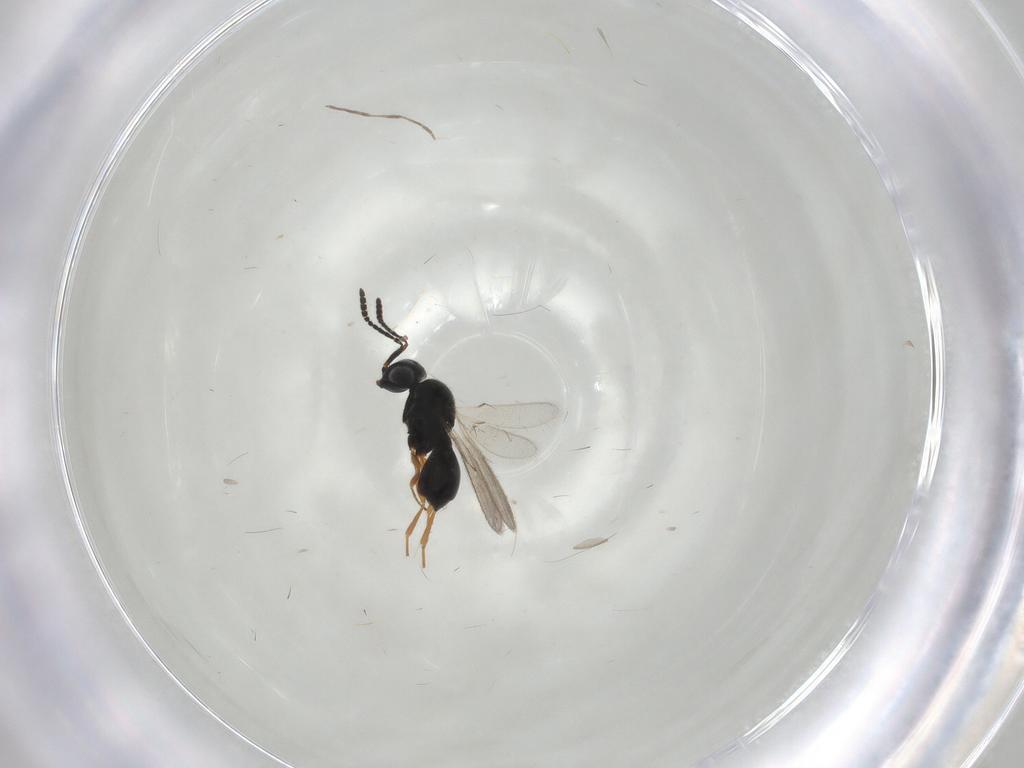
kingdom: Animalia
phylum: Arthropoda
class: Insecta
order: Hymenoptera
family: Scelionidae
